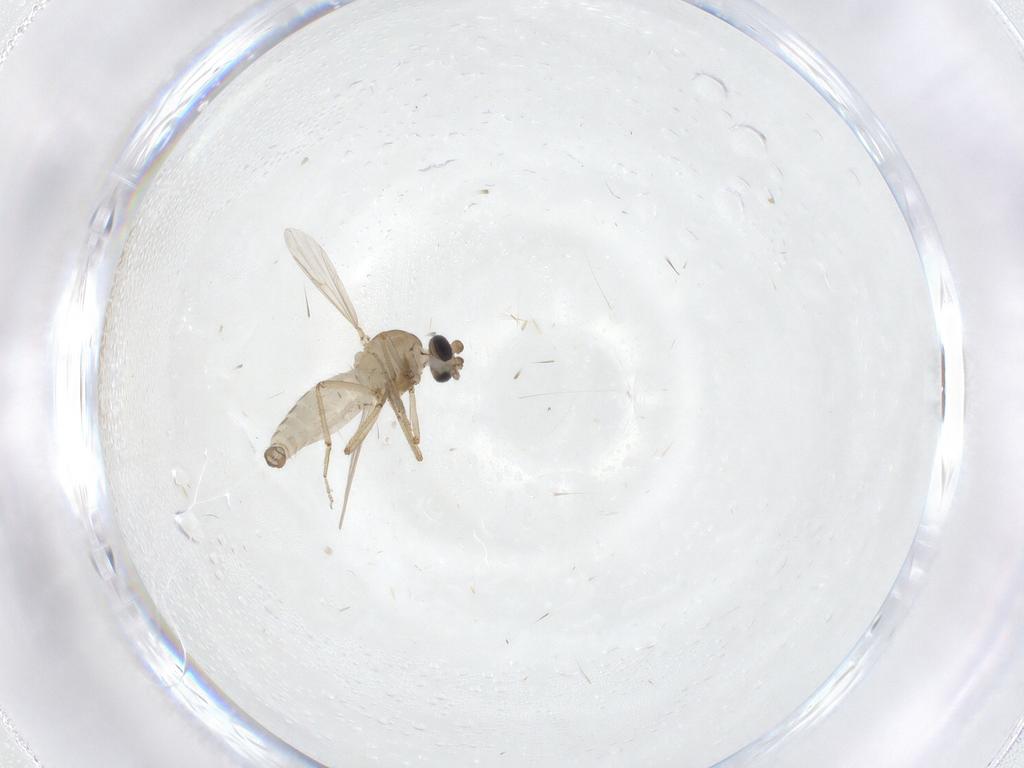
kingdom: Animalia
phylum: Arthropoda
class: Insecta
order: Diptera
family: Ceratopogonidae
